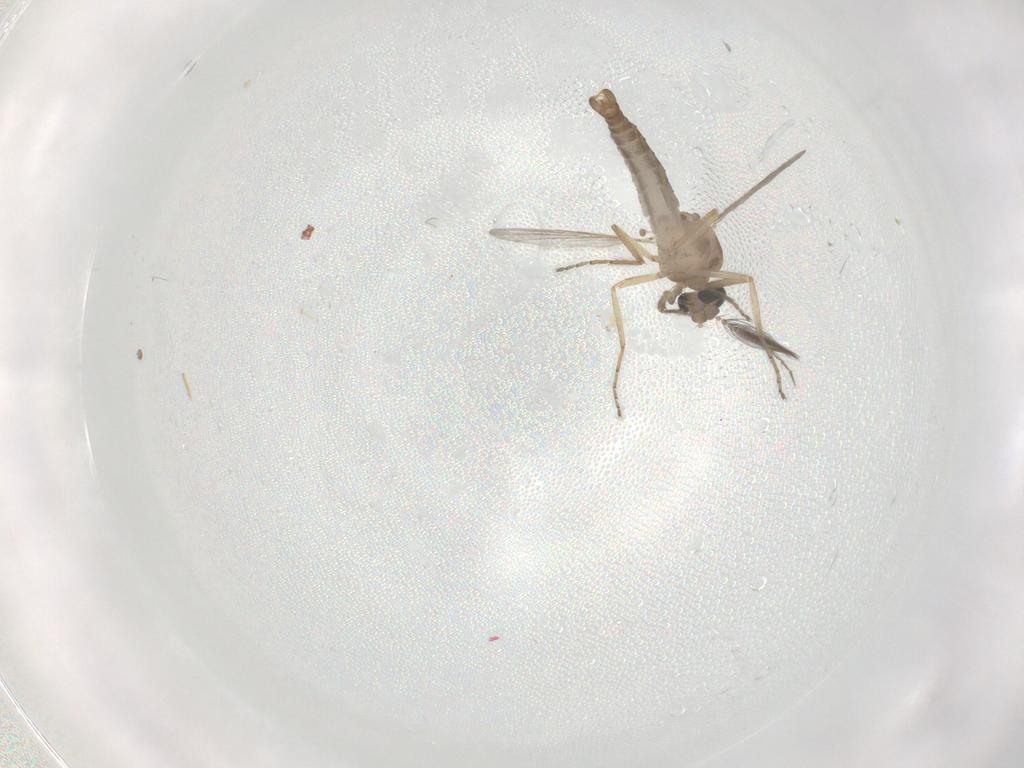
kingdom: Animalia
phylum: Arthropoda
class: Insecta
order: Diptera
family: Ceratopogonidae
